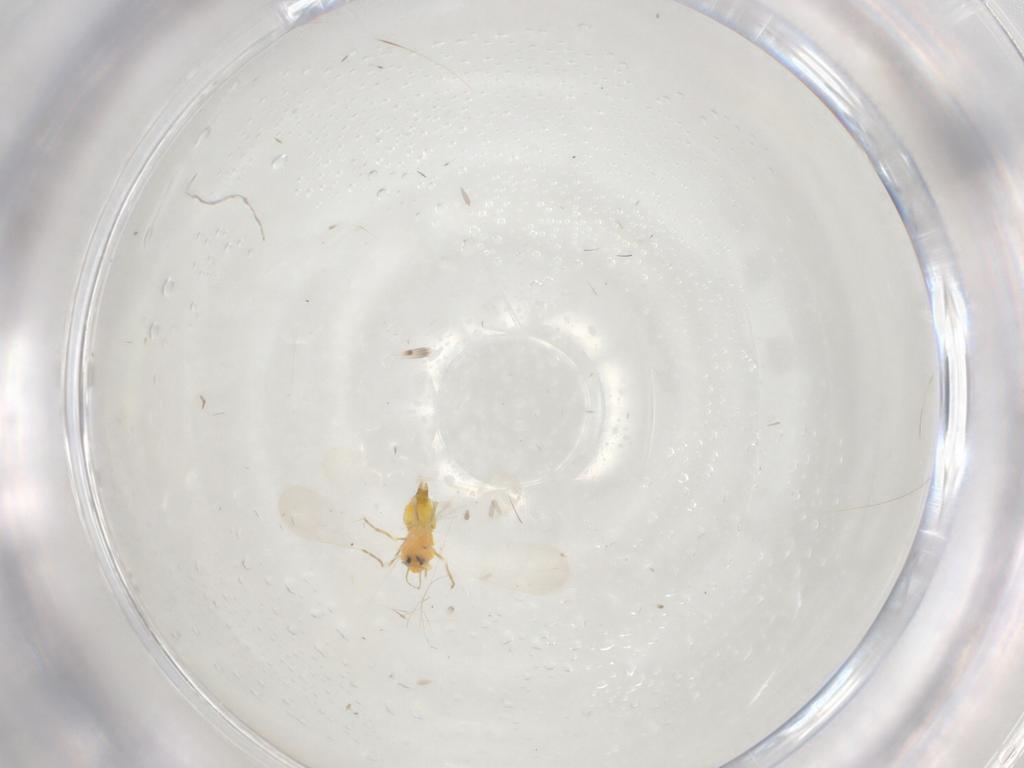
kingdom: Animalia
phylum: Arthropoda
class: Insecta
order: Hemiptera
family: Aleyrodidae
